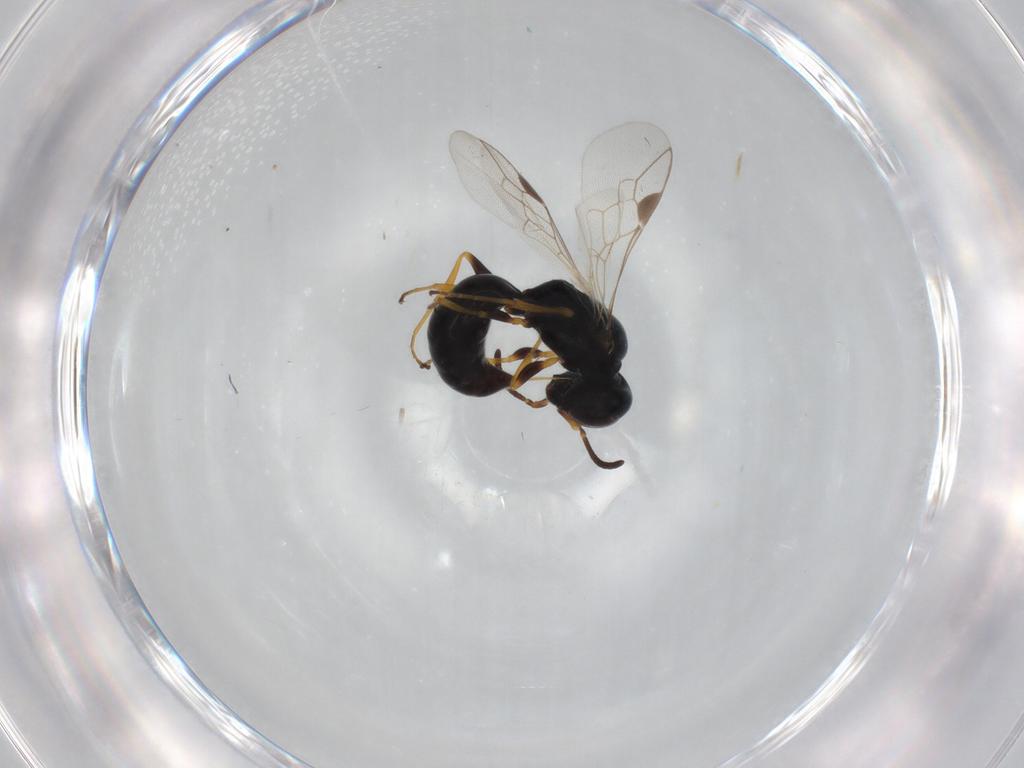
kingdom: Animalia
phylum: Arthropoda
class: Insecta
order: Hymenoptera
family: Pemphredonidae
